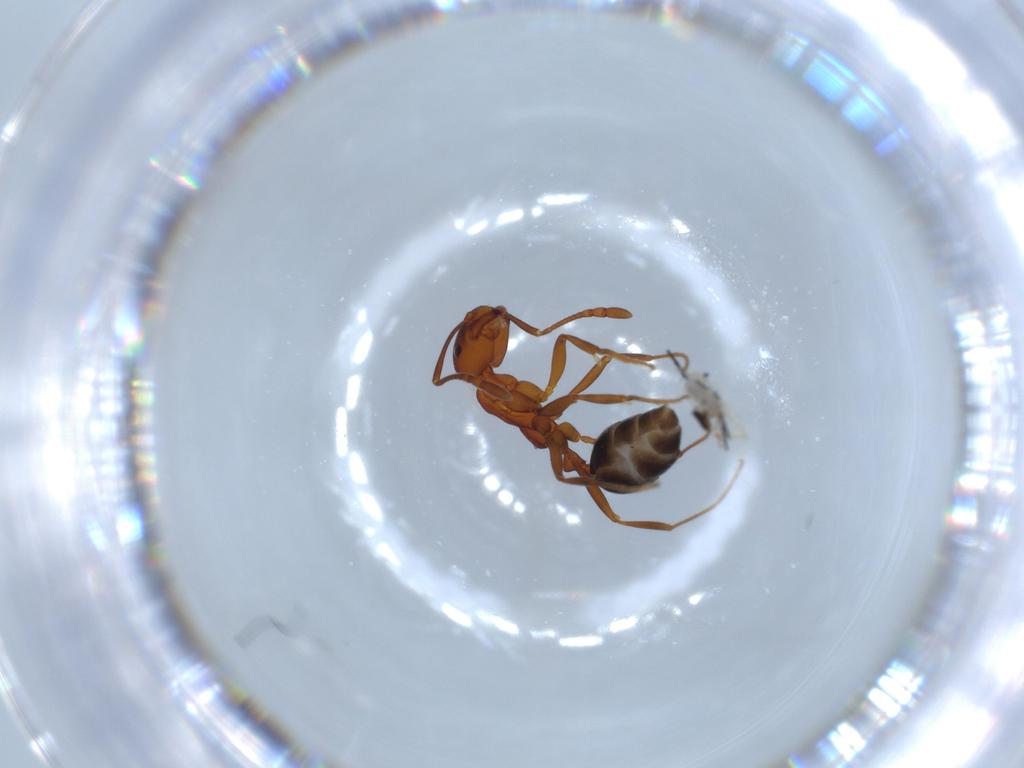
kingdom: Animalia
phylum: Arthropoda
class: Insecta
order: Hymenoptera
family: Formicidae
